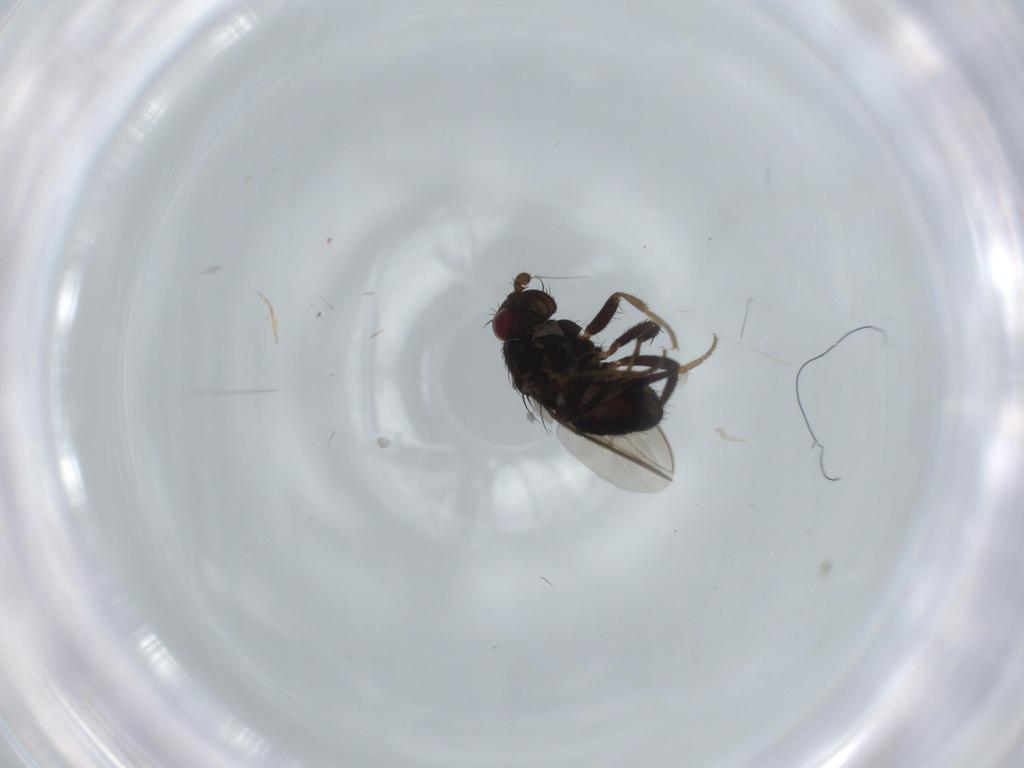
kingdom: Animalia
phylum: Arthropoda
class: Insecta
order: Diptera
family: Sphaeroceridae
